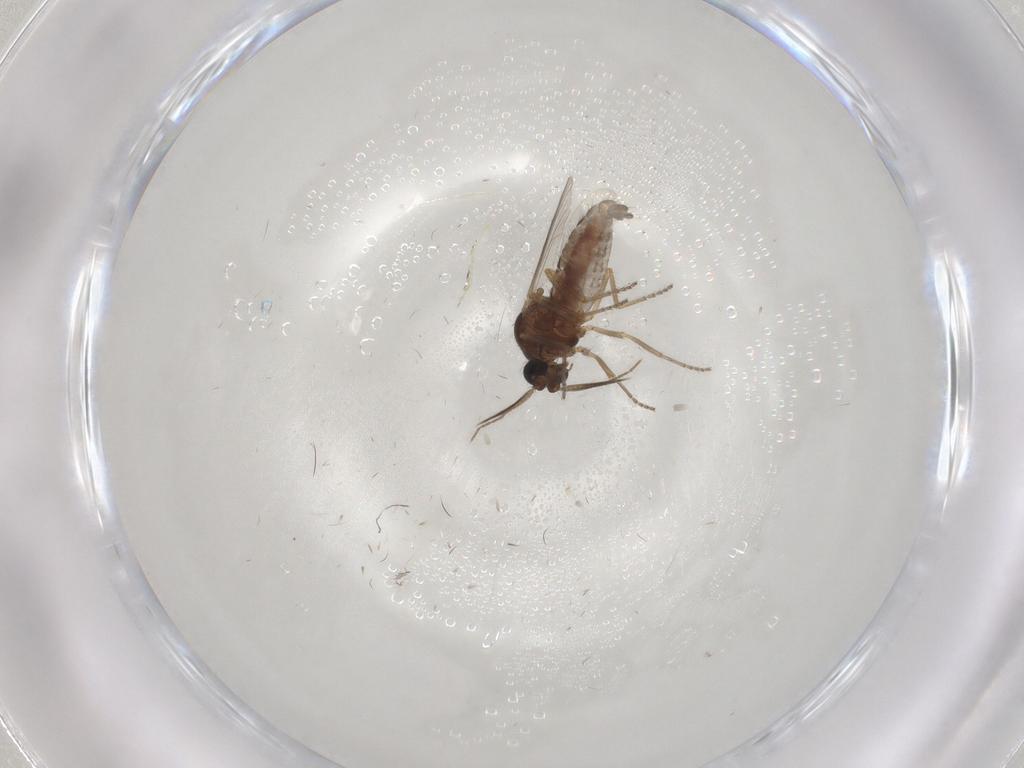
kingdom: Animalia
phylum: Arthropoda
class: Insecta
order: Diptera
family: Ceratopogonidae
